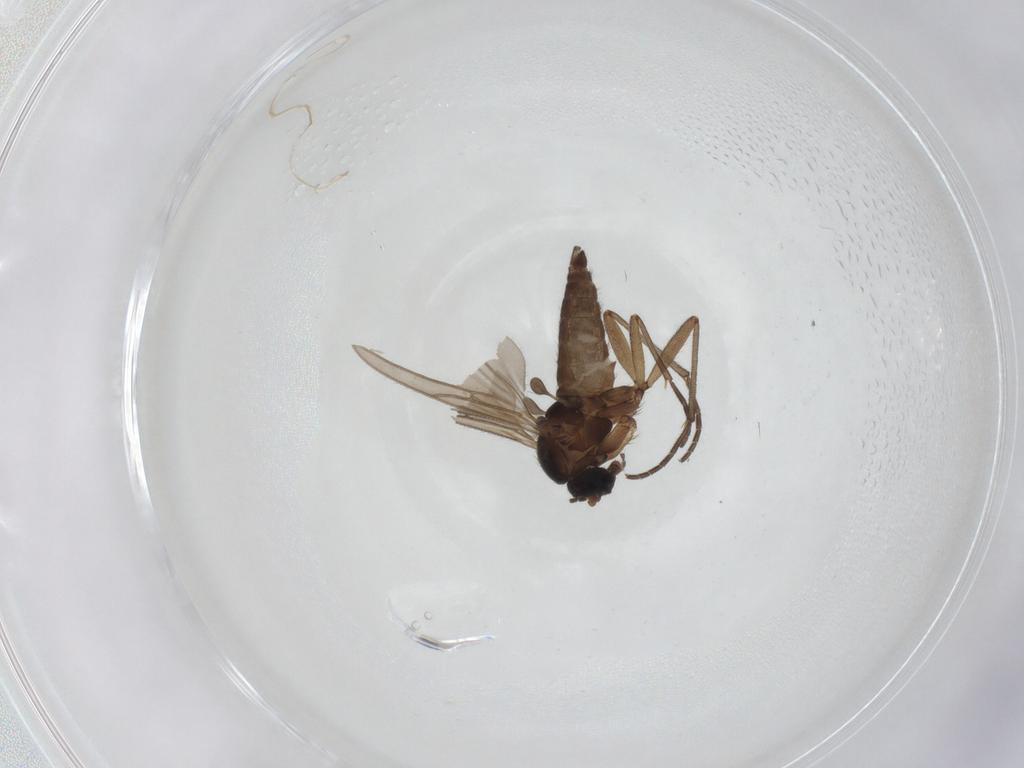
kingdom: Animalia
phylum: Arthropoda
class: Insecta
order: Diptera
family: Sciaridae
